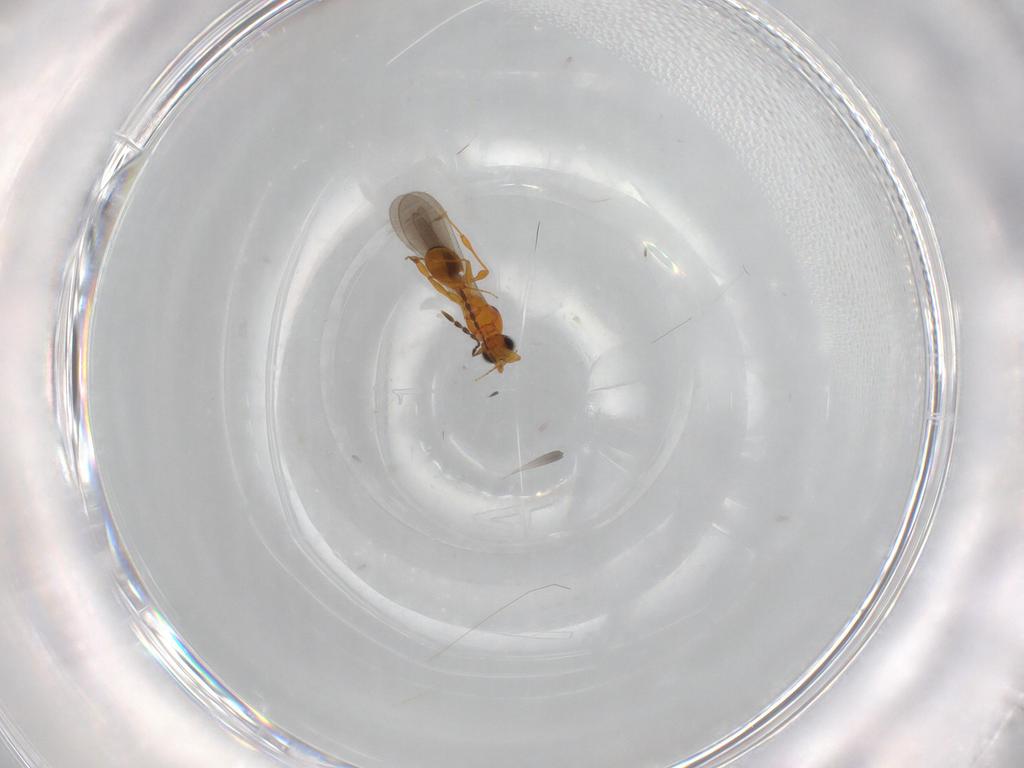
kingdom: Animalia
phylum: Arthropoda
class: Insecta
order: Hymenoptera
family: Platygastridae
